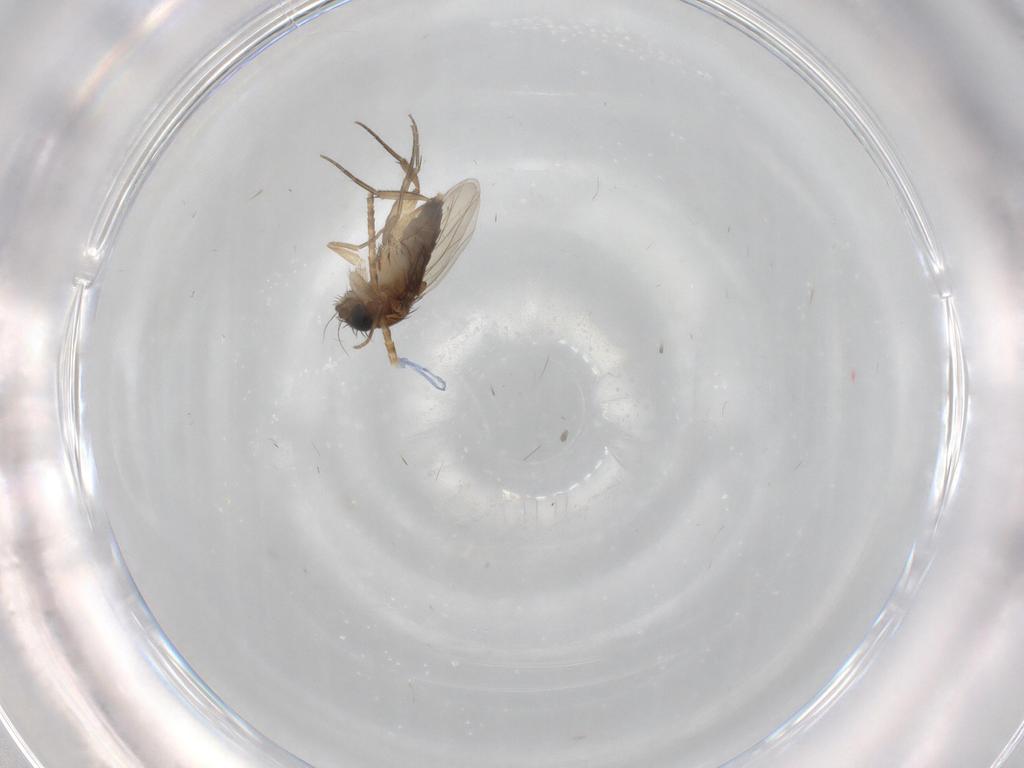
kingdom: Animalia
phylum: Arthropoda
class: Insecta
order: Diptera
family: Phoridae
